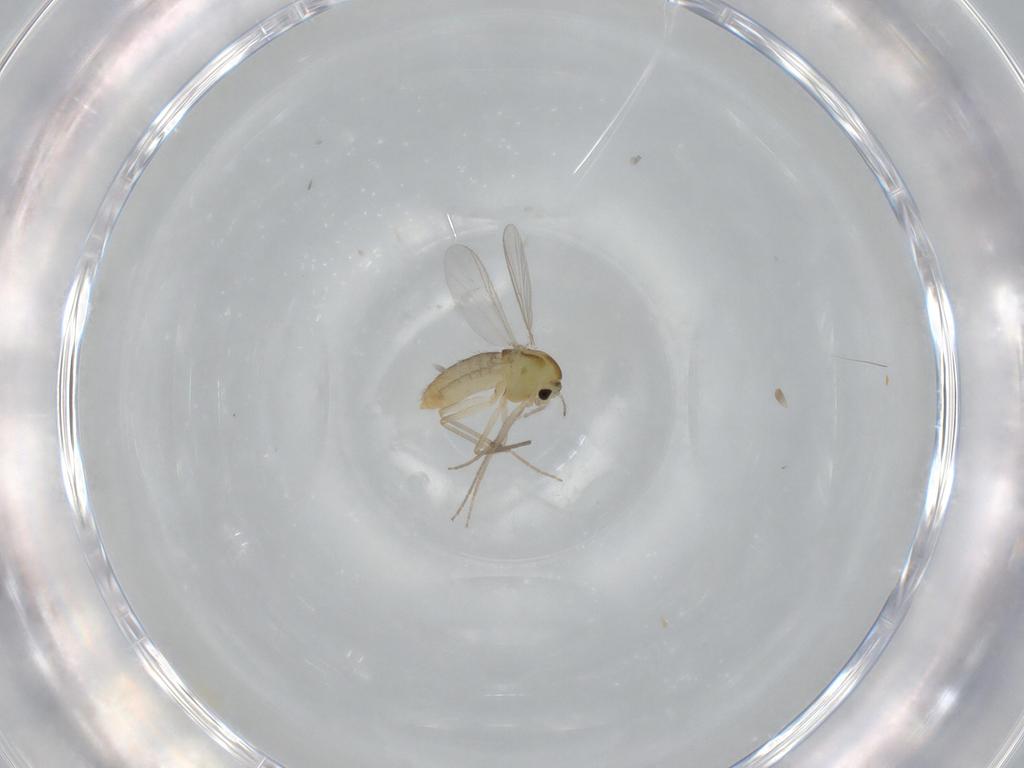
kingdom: Animalia
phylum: Arthropoda
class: Insecta
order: Diptera
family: Chironomidae
